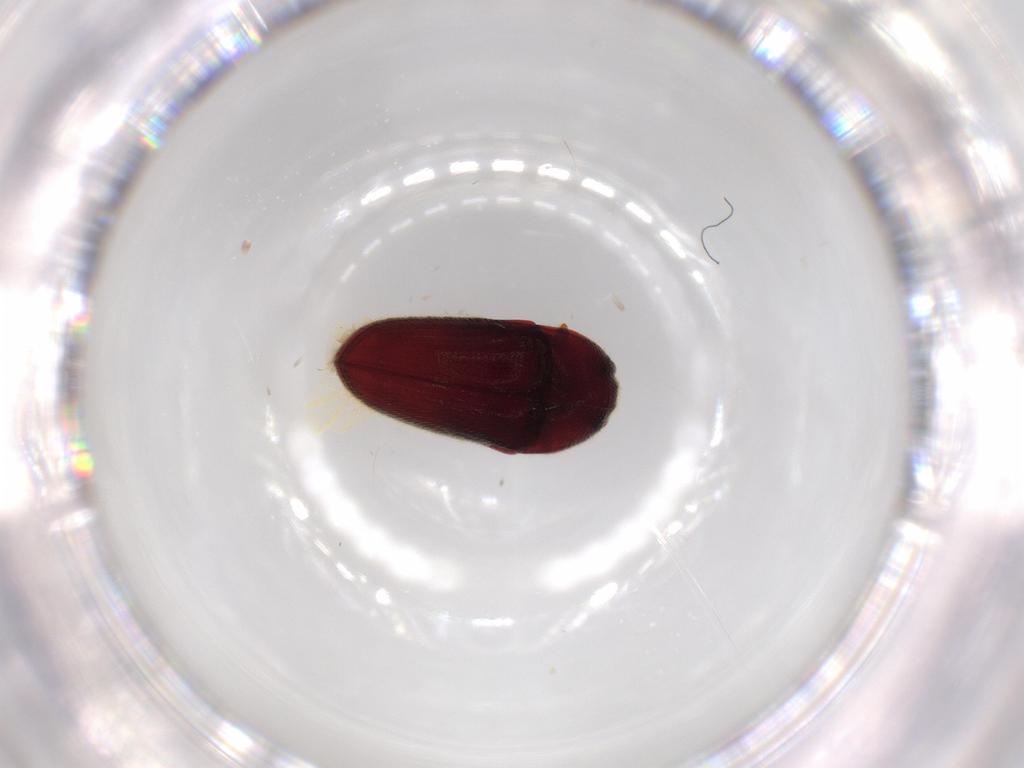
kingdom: Animalia
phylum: Arthropoda
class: Insecta
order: Coleoptera
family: Throscidae
